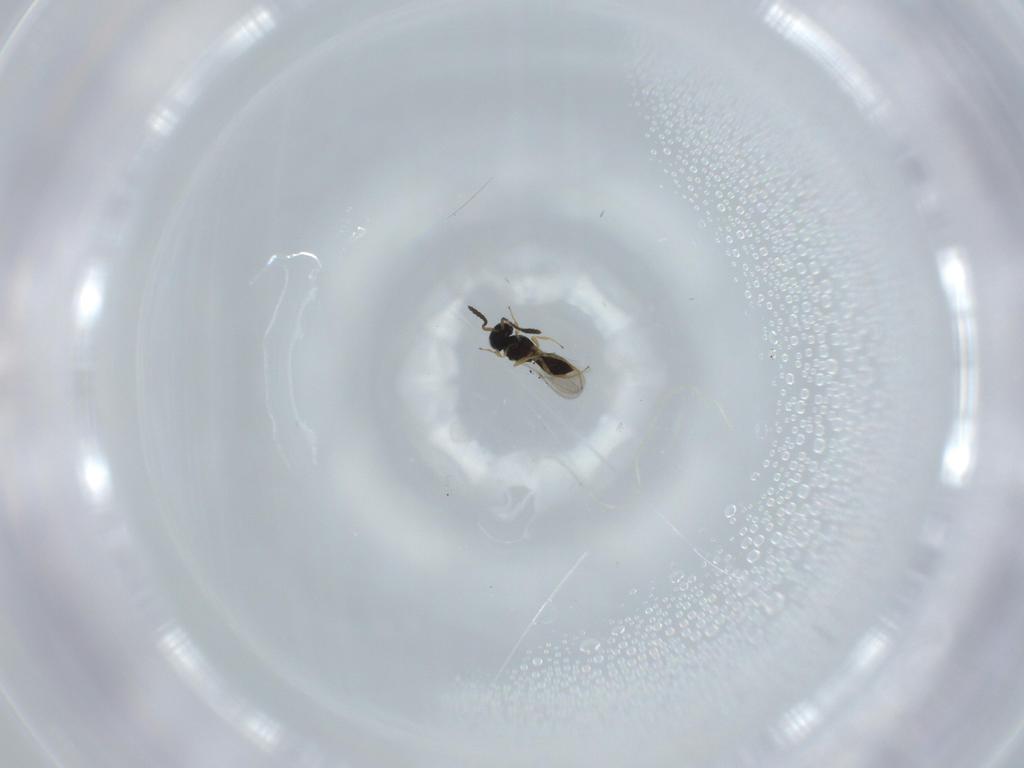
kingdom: Animalia
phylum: Arthropoda
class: Insecta
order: Hymenoptera
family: Scelionidae
